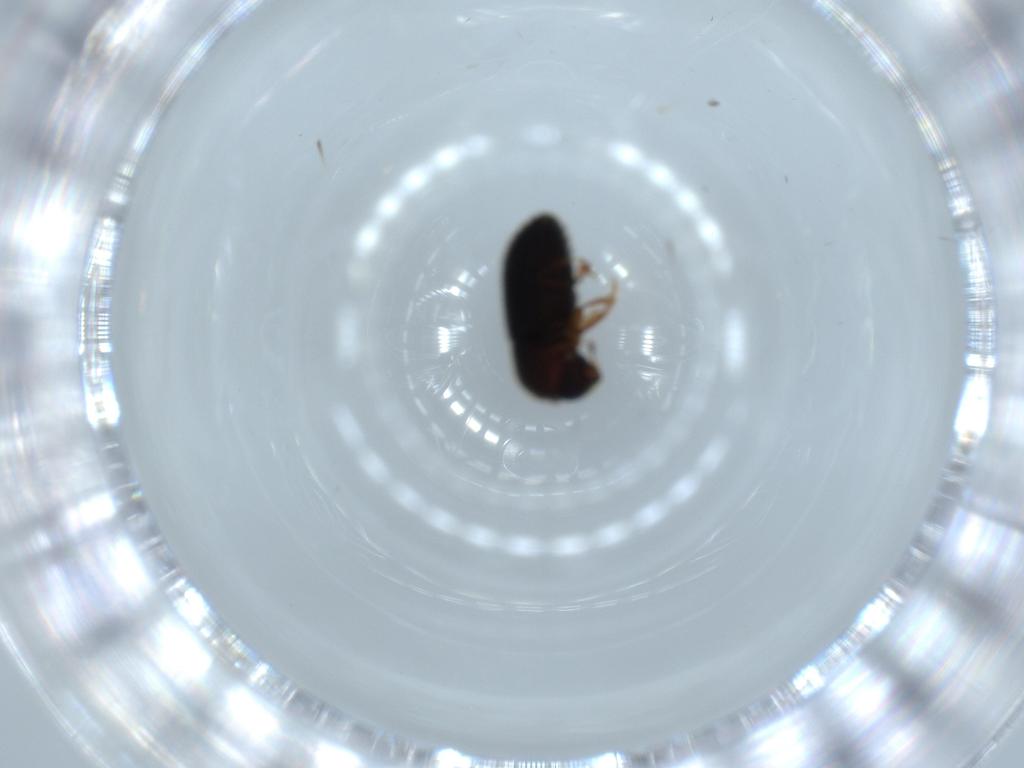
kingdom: Animalia
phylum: Arthropoda
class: Insecta
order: Coleoptera
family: Curculionidae
